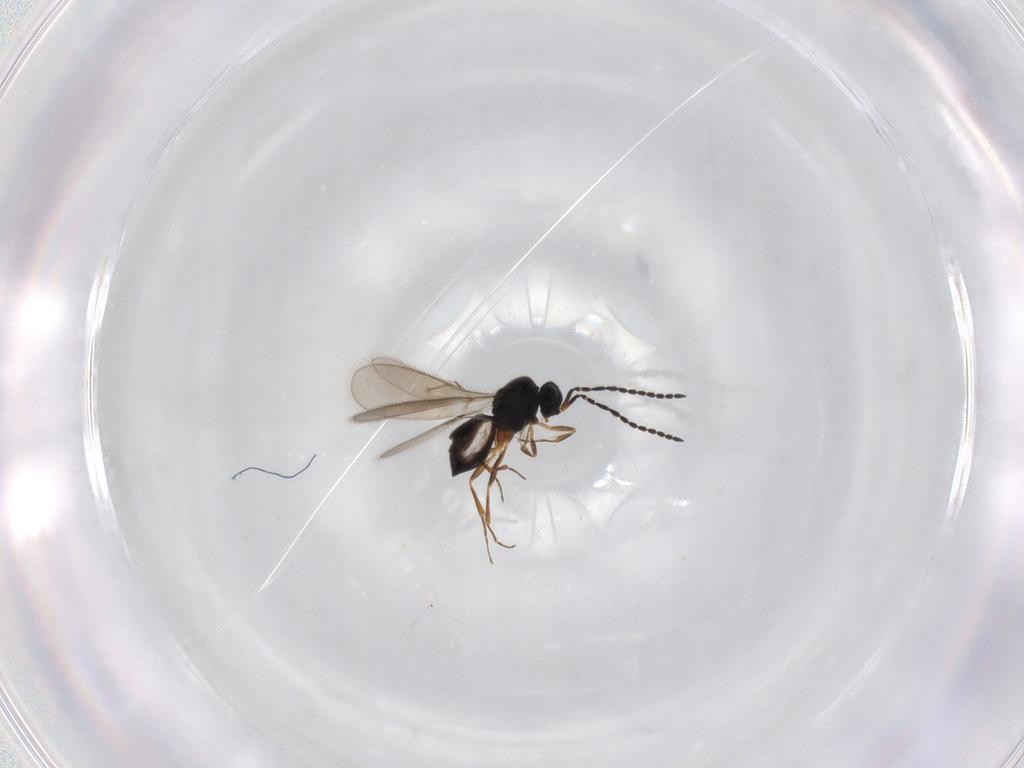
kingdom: Animalia
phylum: Arthropoda
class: Insecta
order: Hymenoptera
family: Scelionidae
